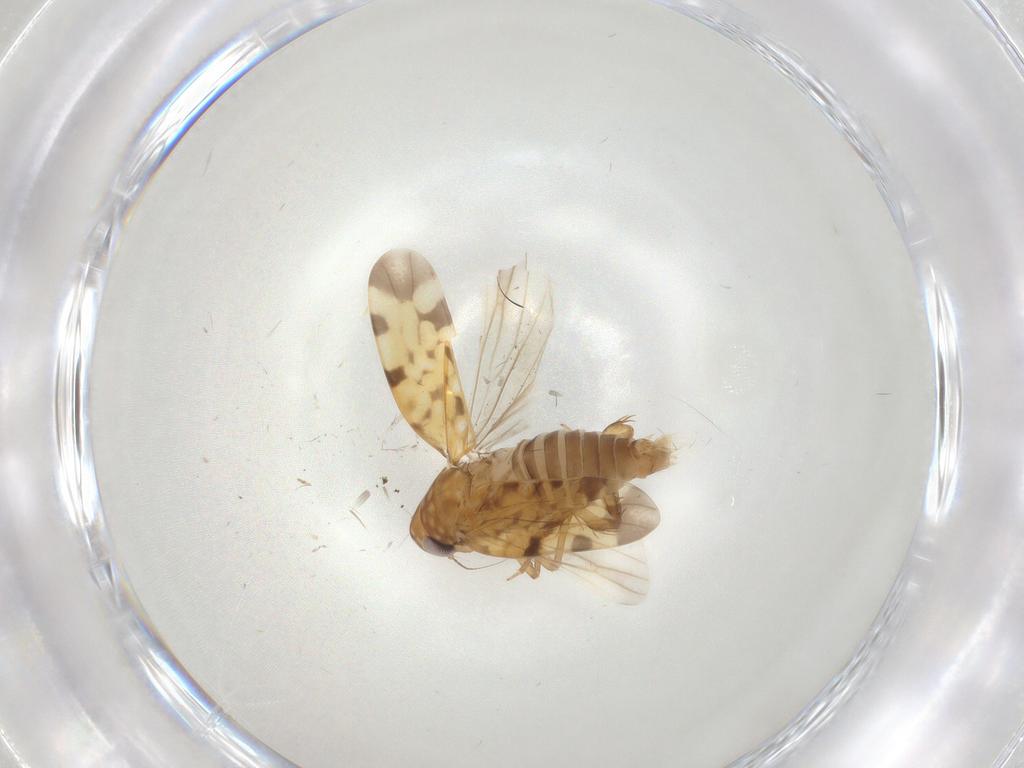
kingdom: Animalia
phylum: Arthropoda
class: Insecta
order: Hemiptera
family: Cicadellidae
